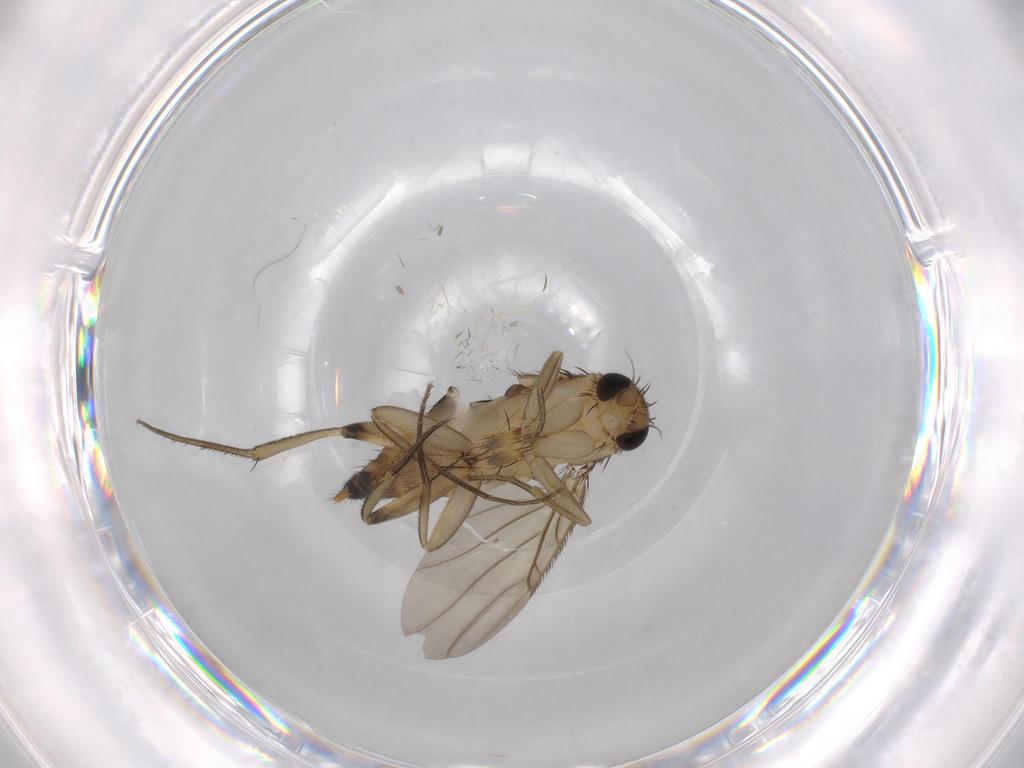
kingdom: Animalia
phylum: Arthropoda
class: Insecta
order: Diptera
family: Phoridae
